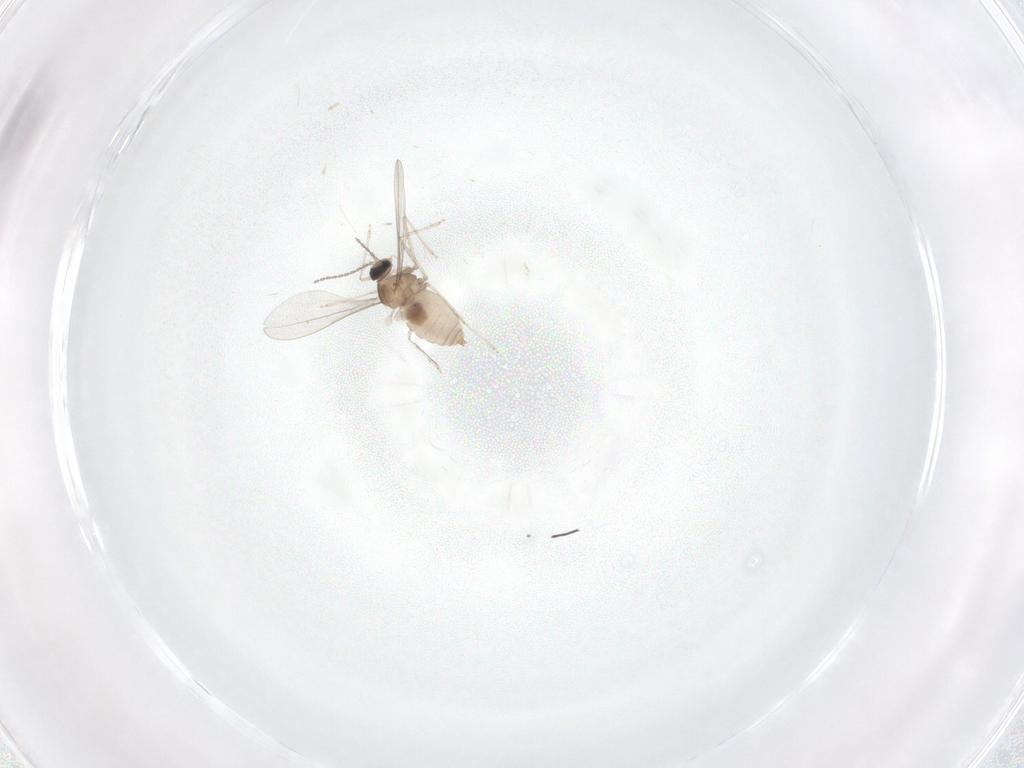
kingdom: Animalia
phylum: Arthropoda
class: Insecta
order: Diptera
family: Cecidomyiidae
